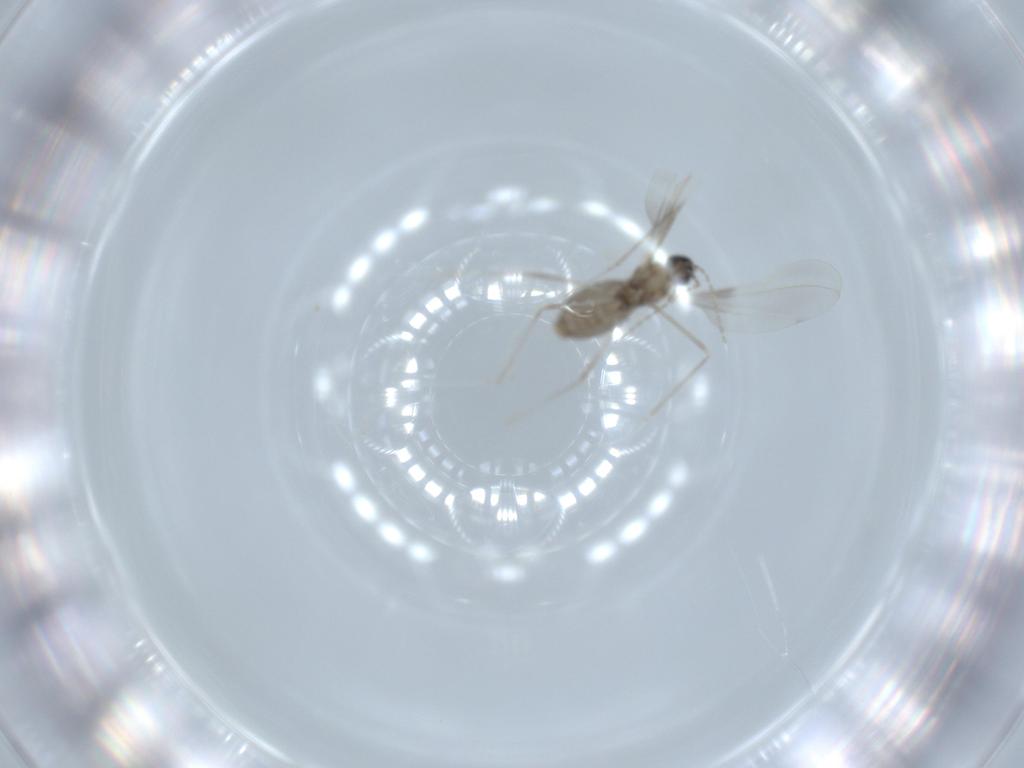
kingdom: Animalia
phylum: Arthropoda
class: Insecta
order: Diptera
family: Cecidomyiidae
